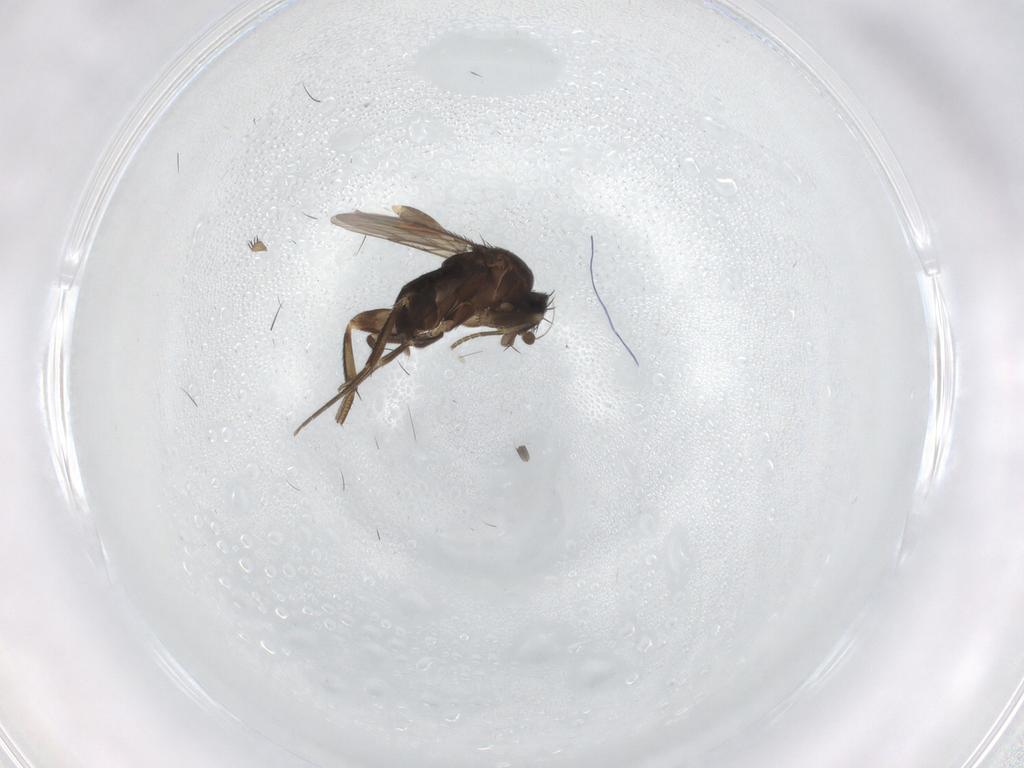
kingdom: Animalia
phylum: Arthropoda
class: Insecta
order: Diptera
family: Phoridae
